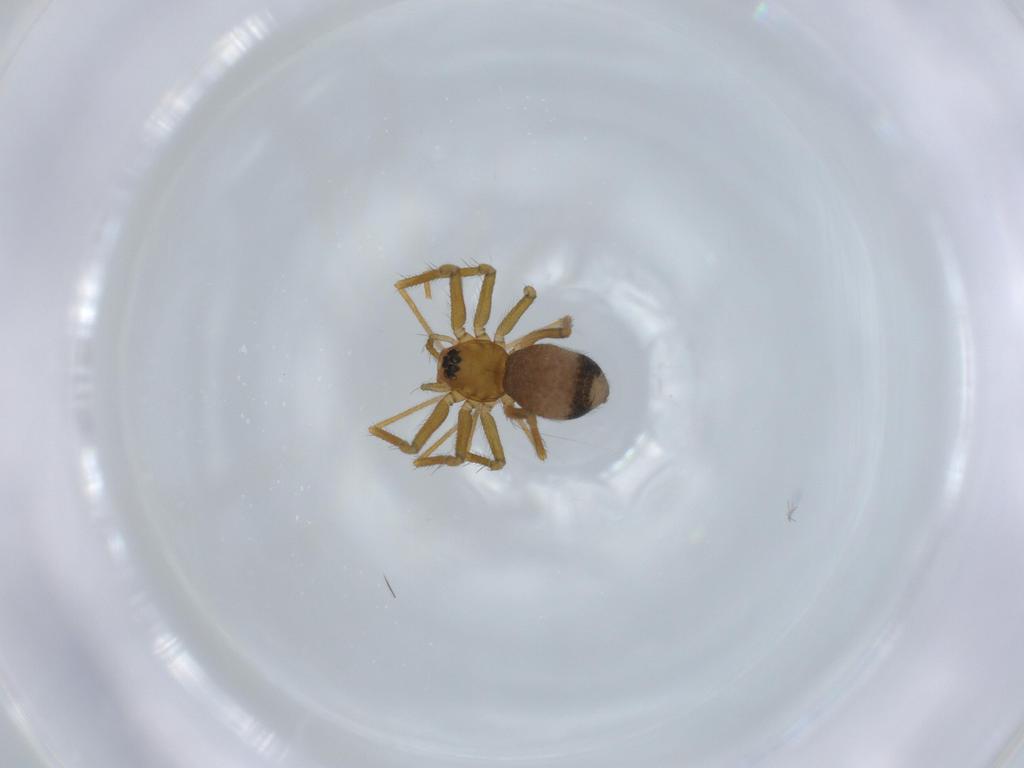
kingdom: Animalia
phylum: Arthropoda
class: Arachnida
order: Araneae
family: Linyphiidae
